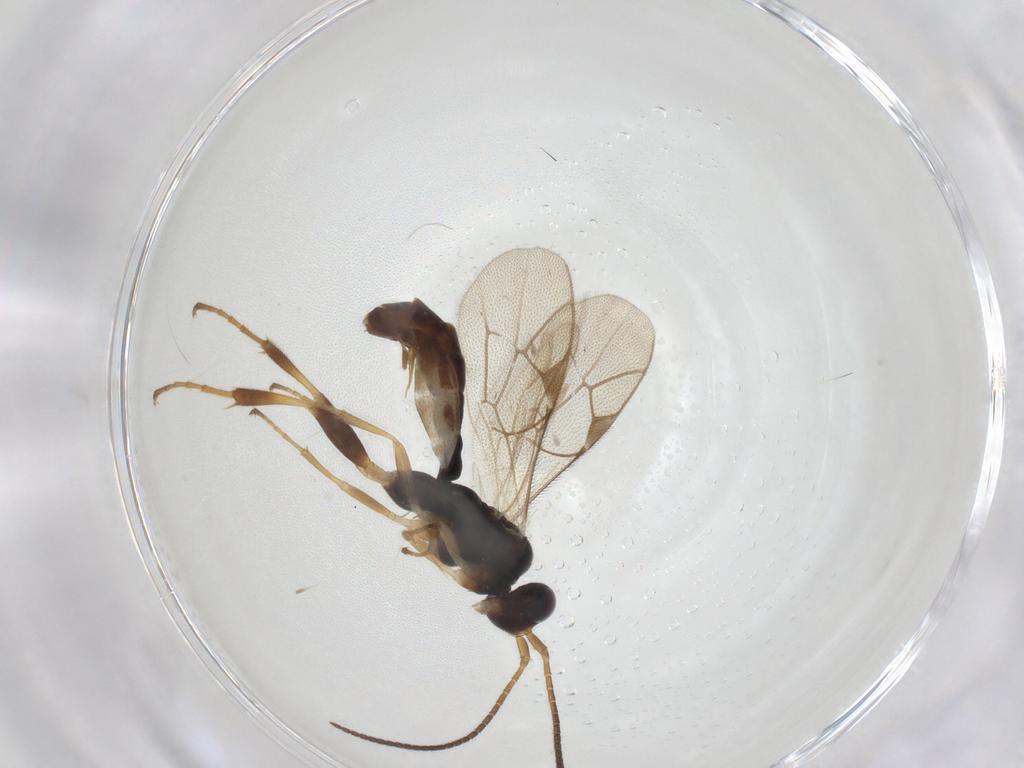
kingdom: Animalia
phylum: Arthropoda
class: Insecta
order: Hymenoptera
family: Ichneumonidae
